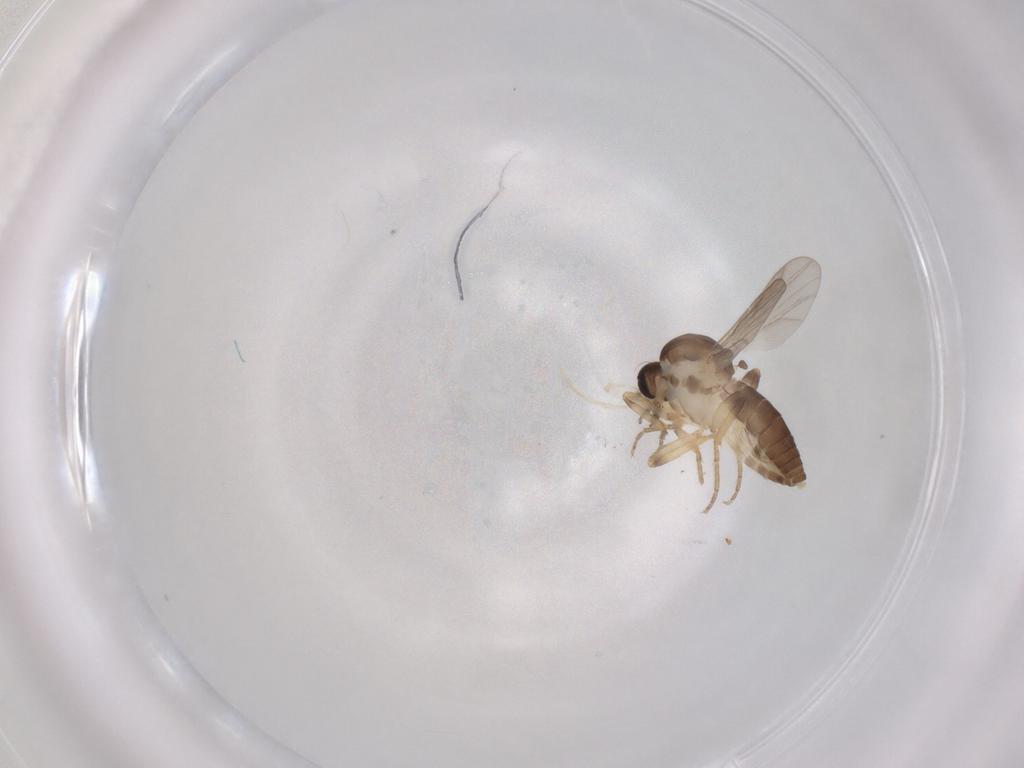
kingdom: Animalia
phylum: Arthropoda
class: Insecta
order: Diptera
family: Ceratopogonidae
